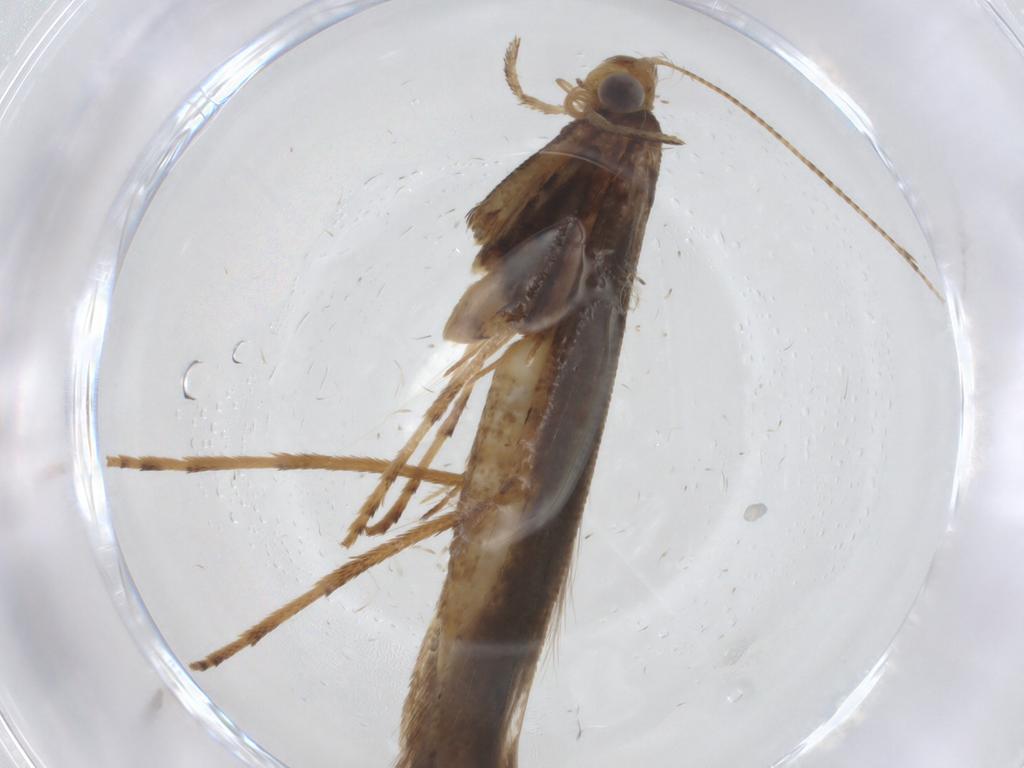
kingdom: Animalia
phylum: Arthropoda
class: Insecta
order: Lepidoptera
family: Gracillariidae
